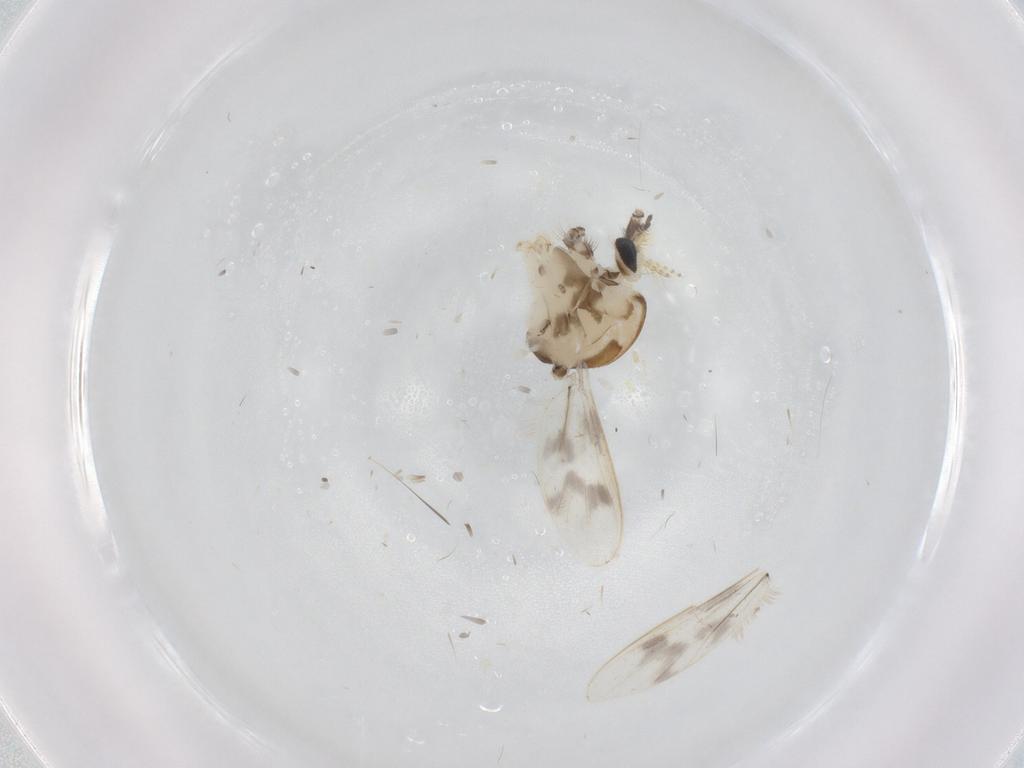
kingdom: Animalia
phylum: Arthropoda
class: Insecta
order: Diptera
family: Corethrellidae
